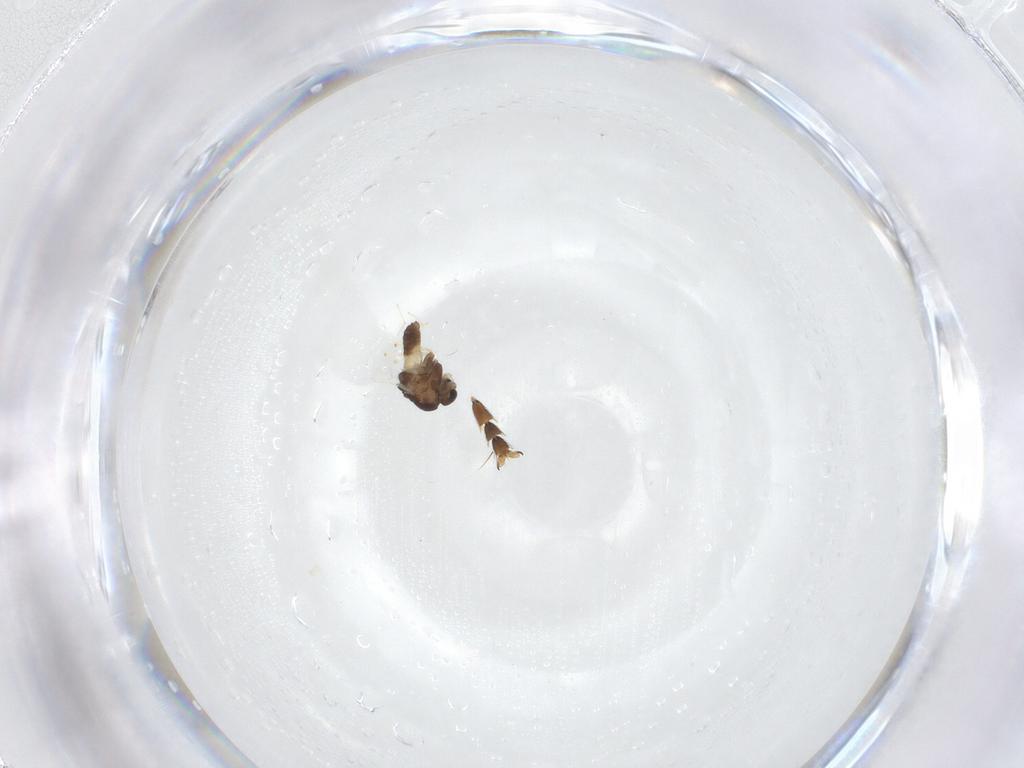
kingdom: Animalia
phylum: Arthropoda
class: Insecta
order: Diptera
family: Chironomidae
